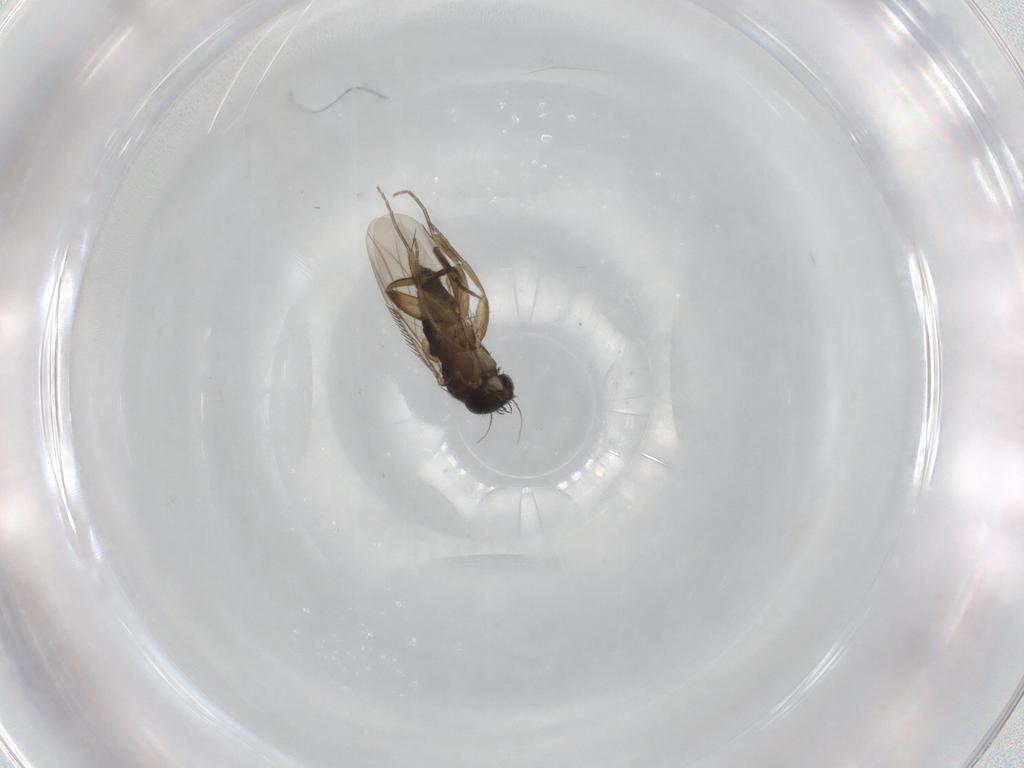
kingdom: Animalia
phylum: Arthropoda
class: Insecta
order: Diptera
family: Phoridae
